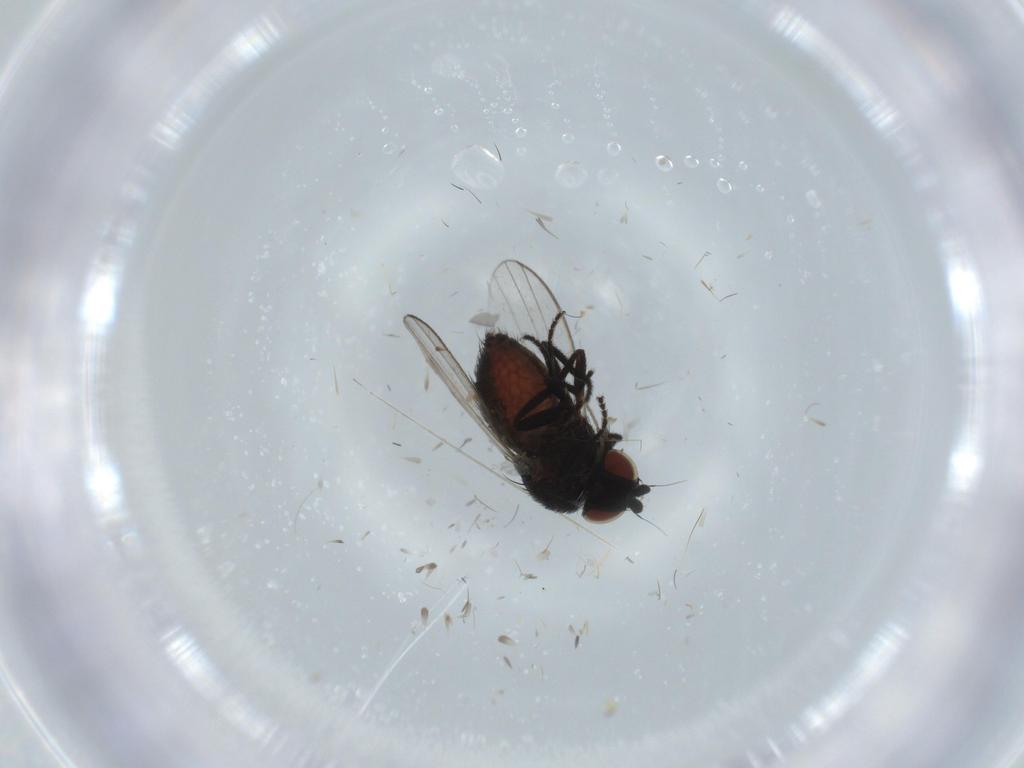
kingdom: Animalia
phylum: Arthropoda
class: Insecta
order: Diptera
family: Milichiidae
